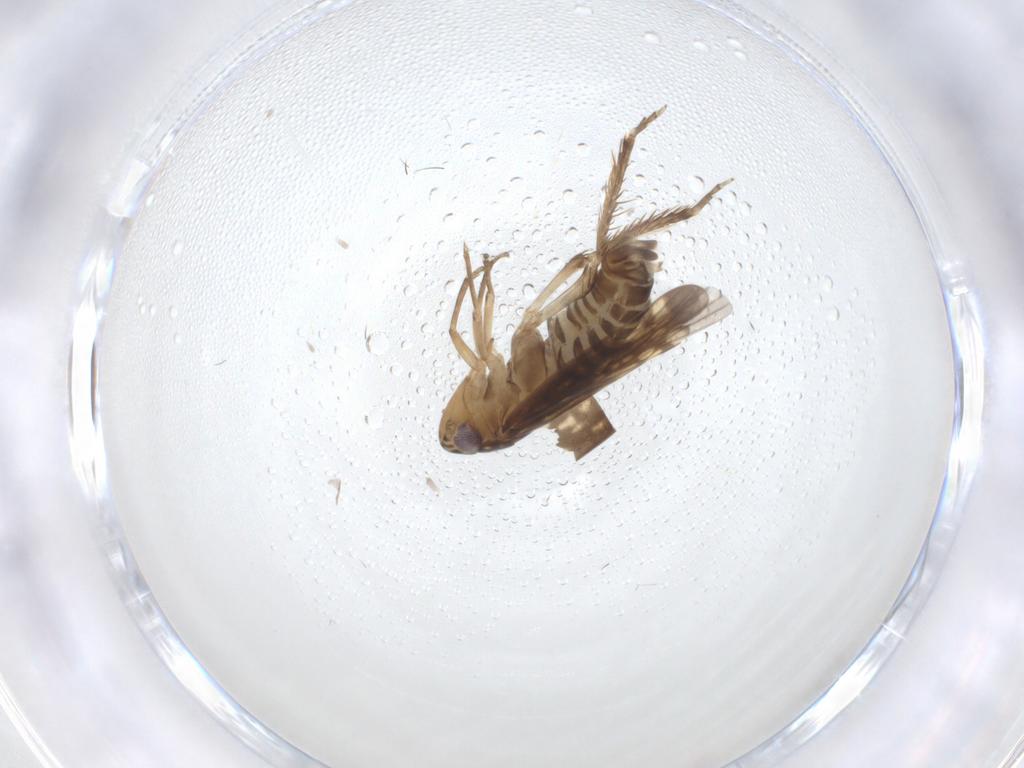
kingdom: Animalia
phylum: Arthropoda
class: Insecta
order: Hemiptera
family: Cicadellidae
